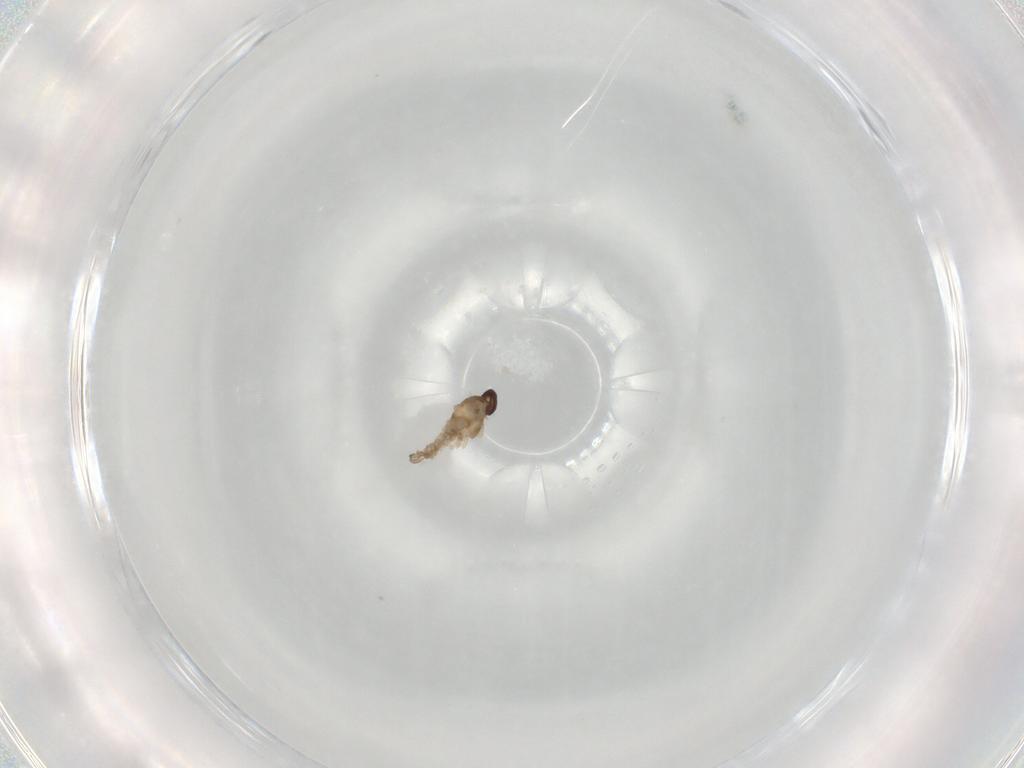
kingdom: Animalia
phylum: Arthropoda
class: Insecta
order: Diptera
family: Cecidomyiidae
